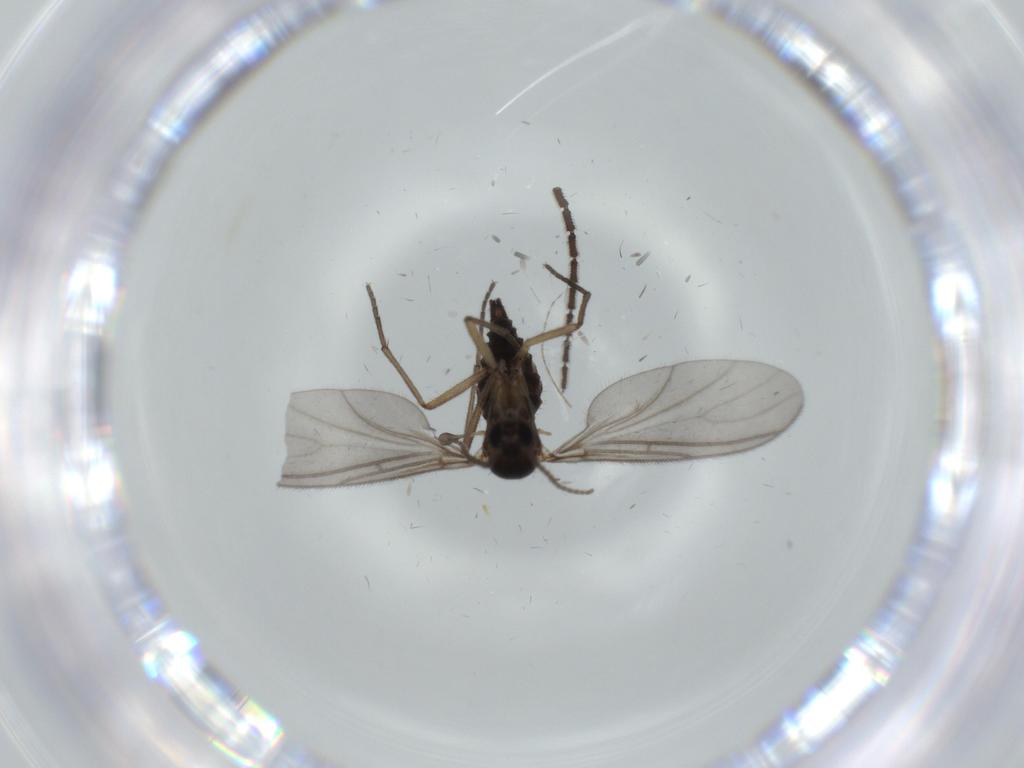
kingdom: Animalia
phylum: Arthropoda
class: Insecta
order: Diptera
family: Sciaridae
